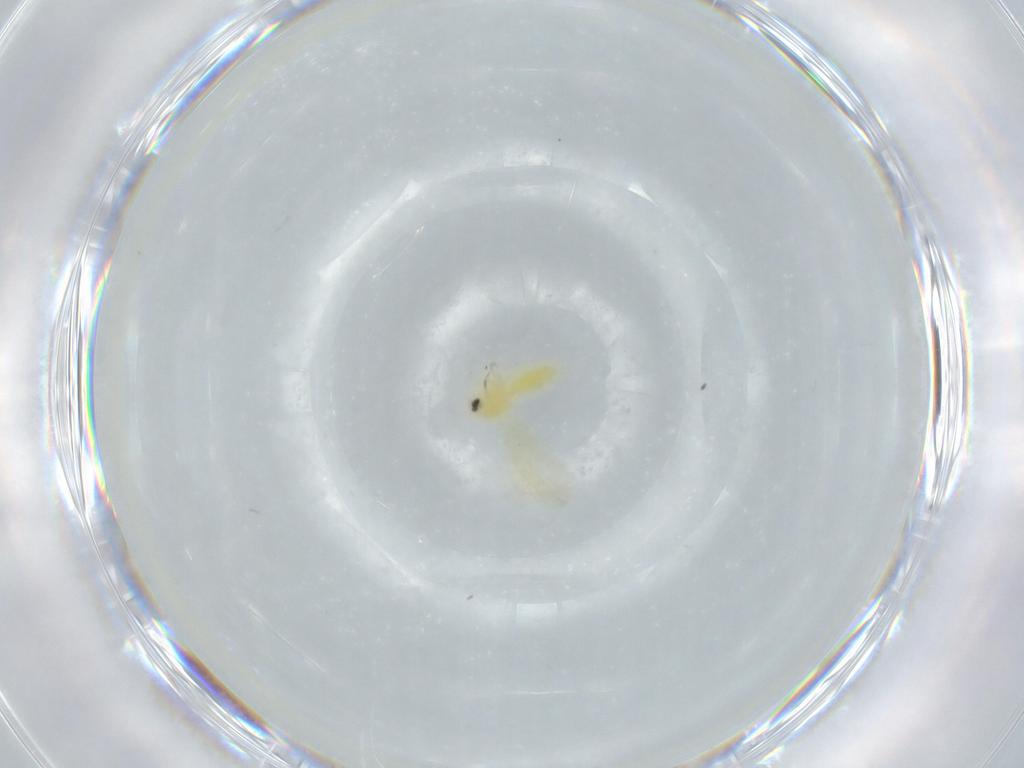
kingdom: Animalia
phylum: Arthropoda
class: Insecta
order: Hemiptera
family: Aleyrodidae
